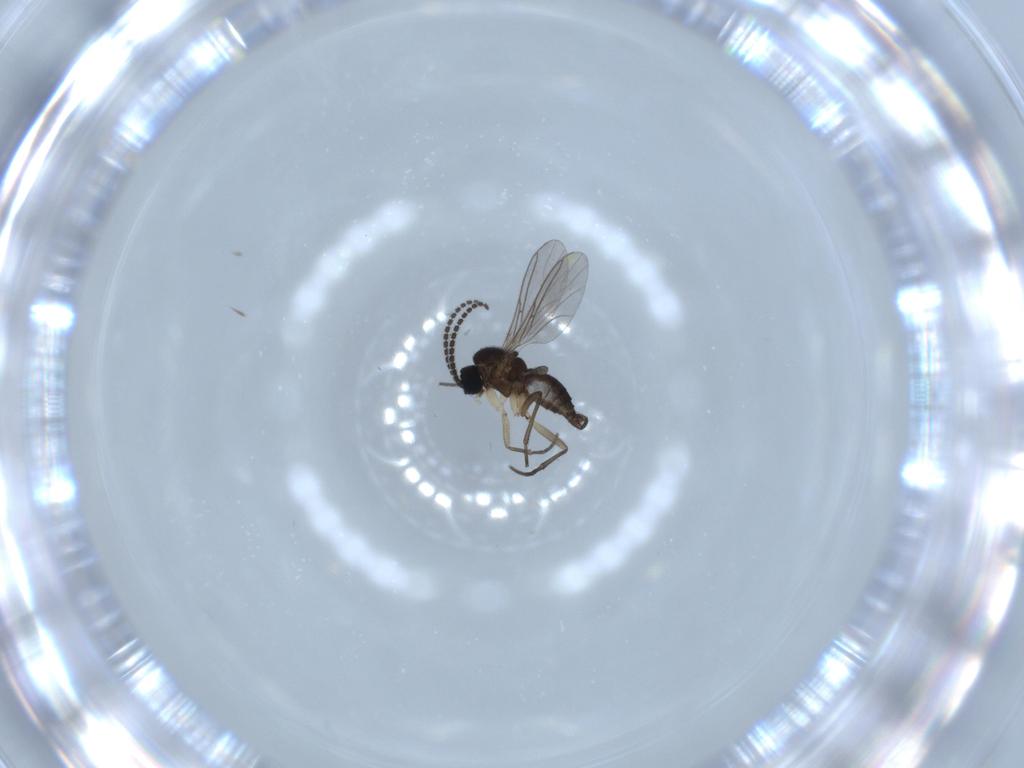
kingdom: Animalia
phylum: Arthropoda
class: Insecta
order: Diptera
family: Sciaridae
